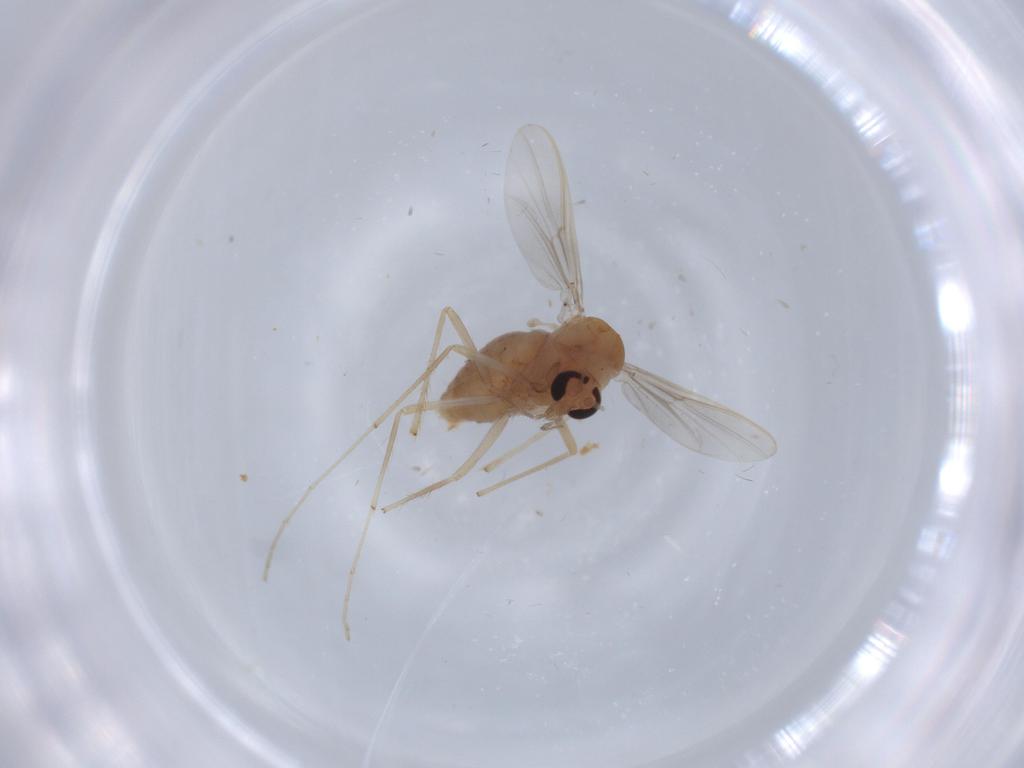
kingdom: Animalia
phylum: Arthropoda
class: Insecta
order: Diptera
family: Chironomidae
